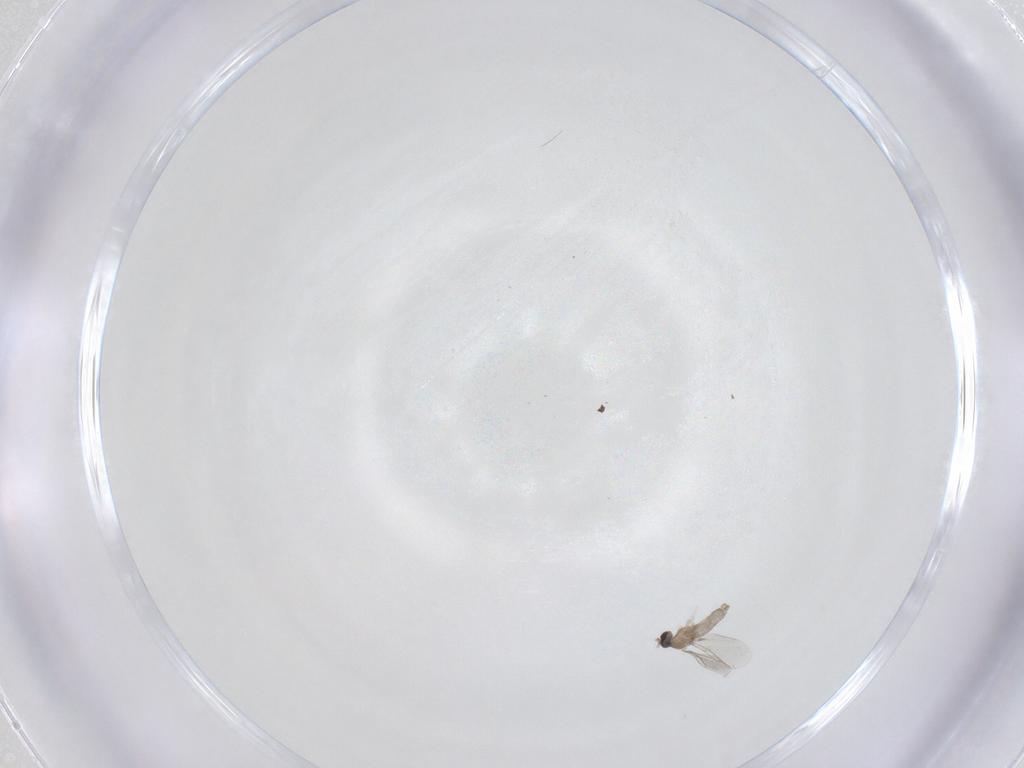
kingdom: Animalia
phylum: Arthropoda
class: Insecta
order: Diptera
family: Cecidomyiidae
